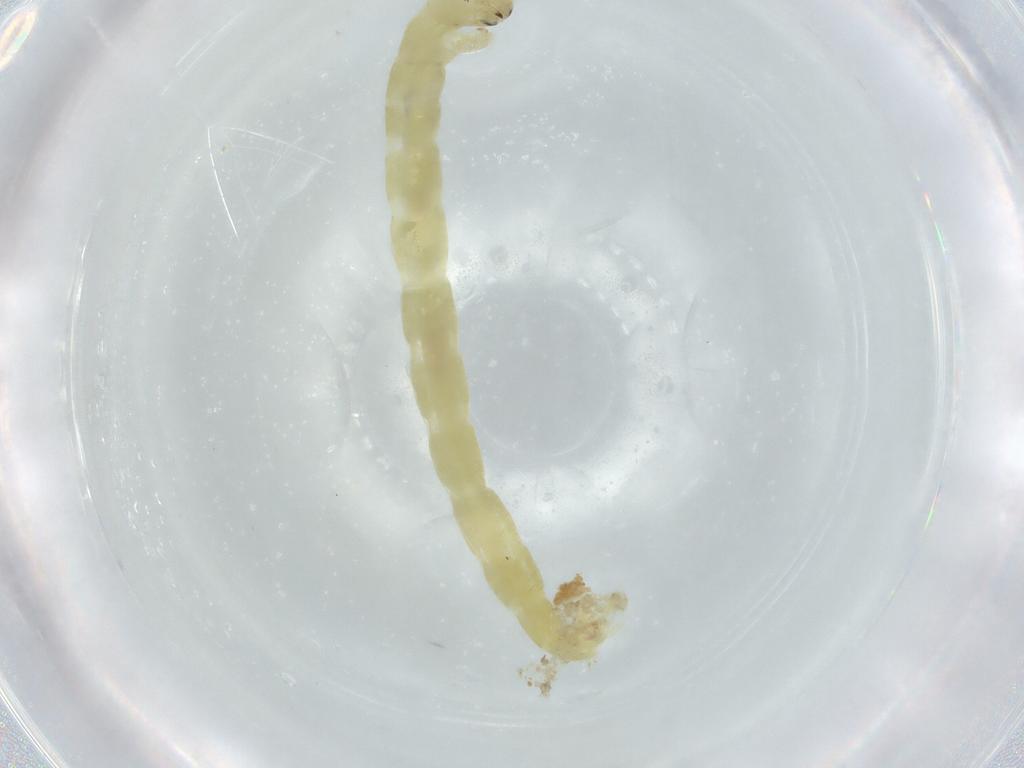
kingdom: Animalia
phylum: Arthropoda
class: Insecta
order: Diptera
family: Chironomidae
